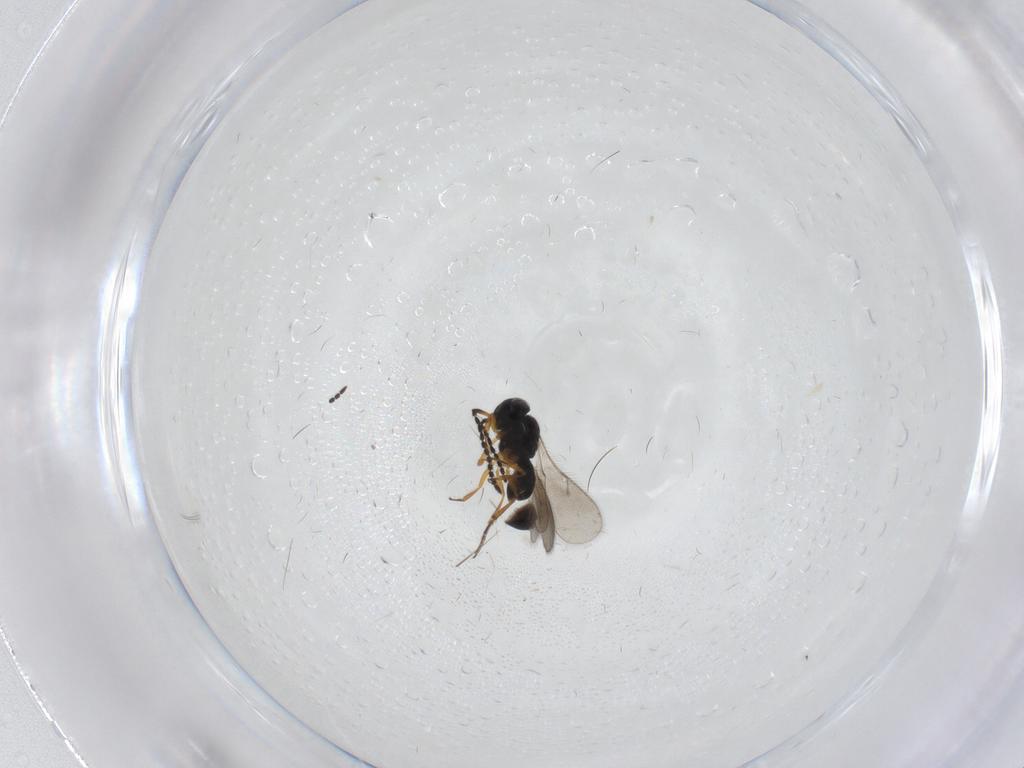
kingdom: Animalia
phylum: Arthropoda
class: Insecta
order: Hymenoptera
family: Scelionidae
